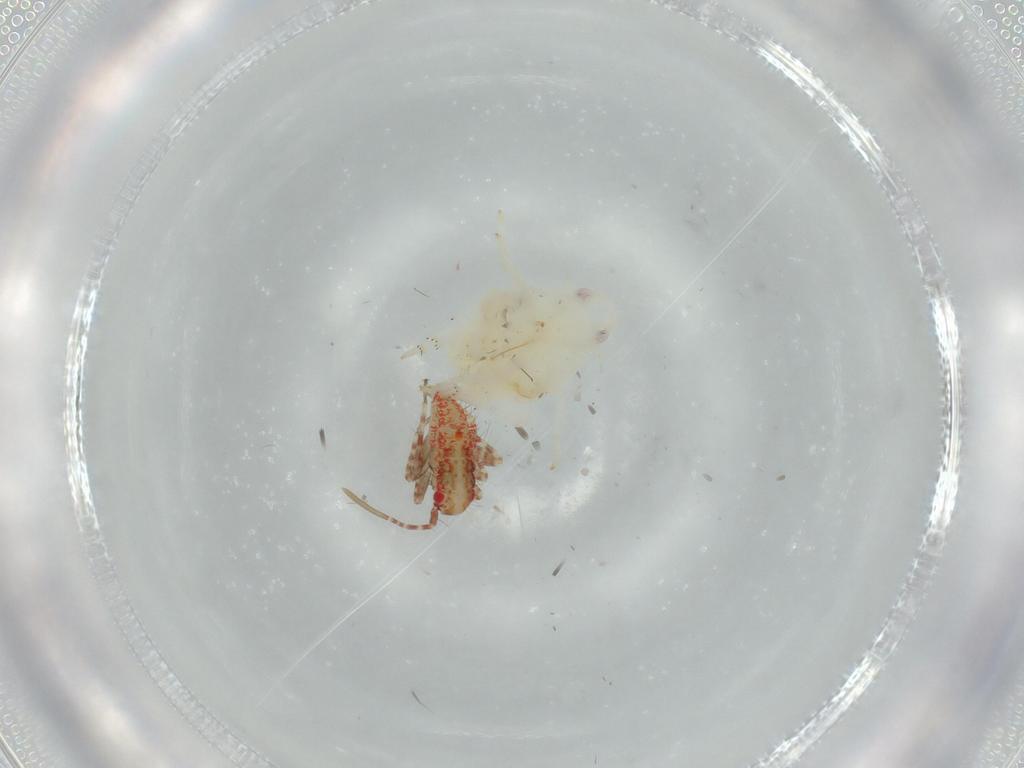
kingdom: Animalia
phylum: Arthropoda
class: Insecta
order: Hemiptera
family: Miridae
